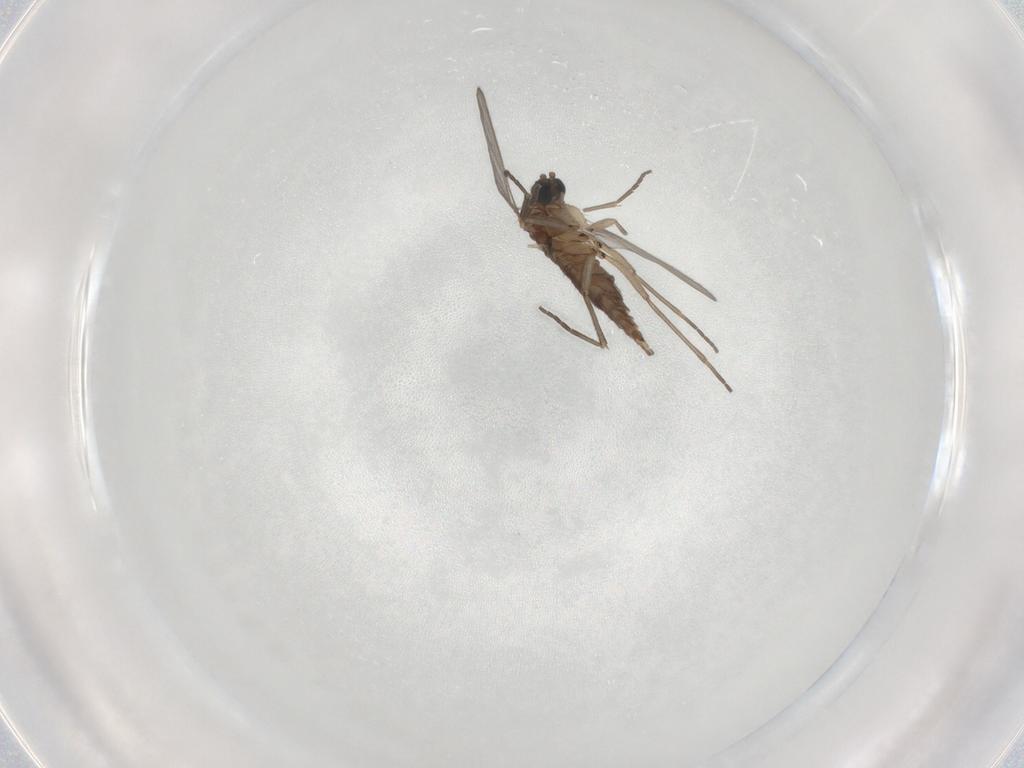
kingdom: Animalia
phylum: Arthropoda
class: Insecta
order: Diptera
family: Sciaridae
